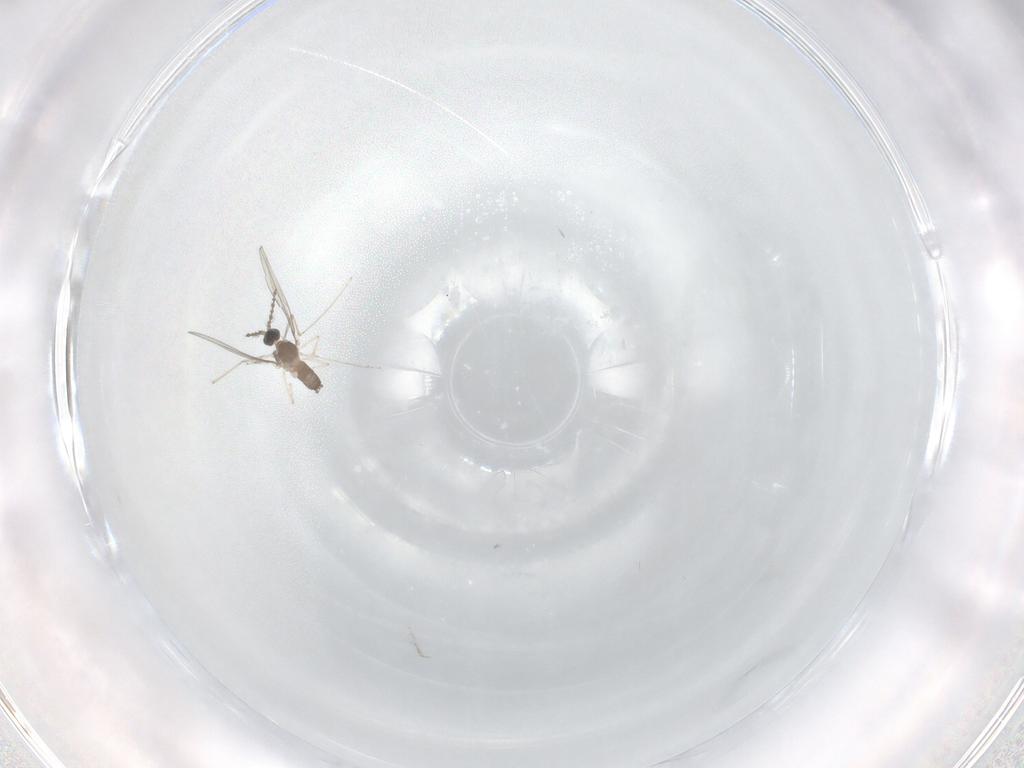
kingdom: Animalia
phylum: Arthropoda
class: Insecta
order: Diptera
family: Cecidomyiidae
